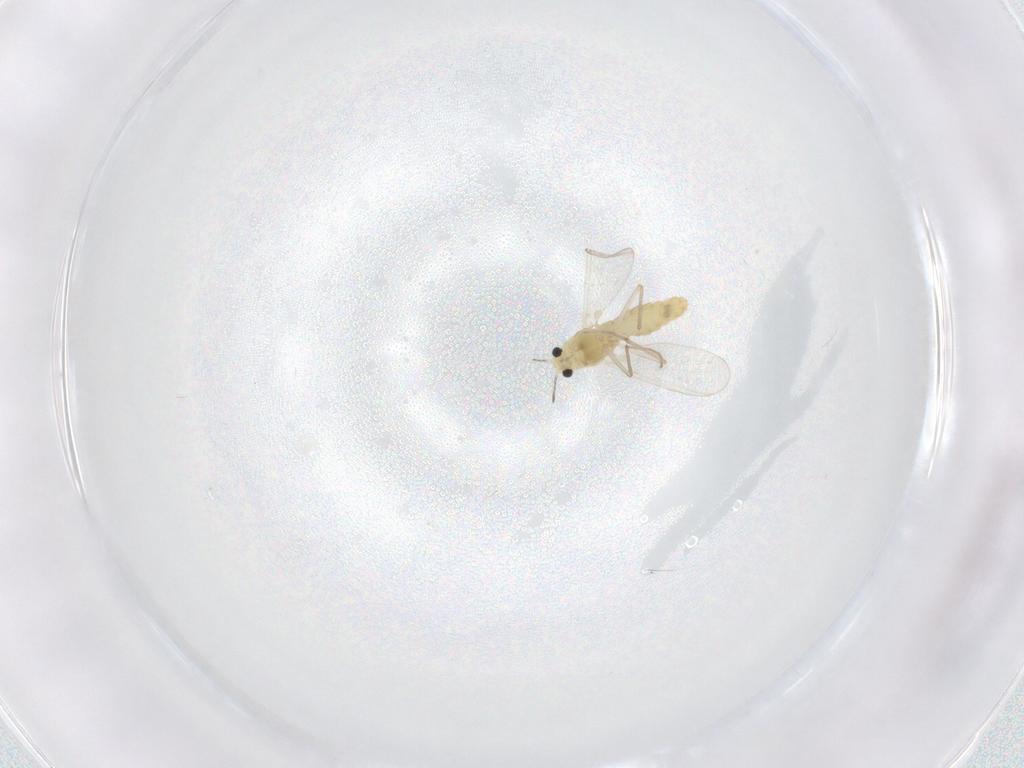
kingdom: Animalia
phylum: Arthropoda
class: Insecta
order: Diptera
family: Chironomidae
